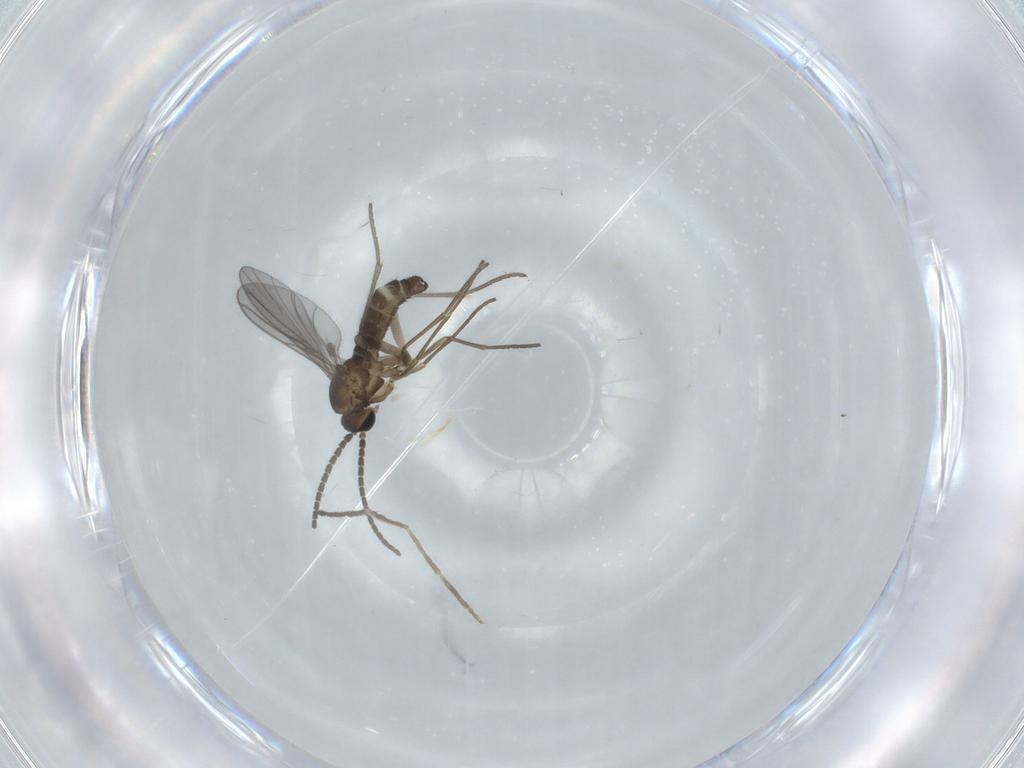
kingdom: Animalia
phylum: Arthropoda
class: Insecta
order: Diptera
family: Sciaridae
